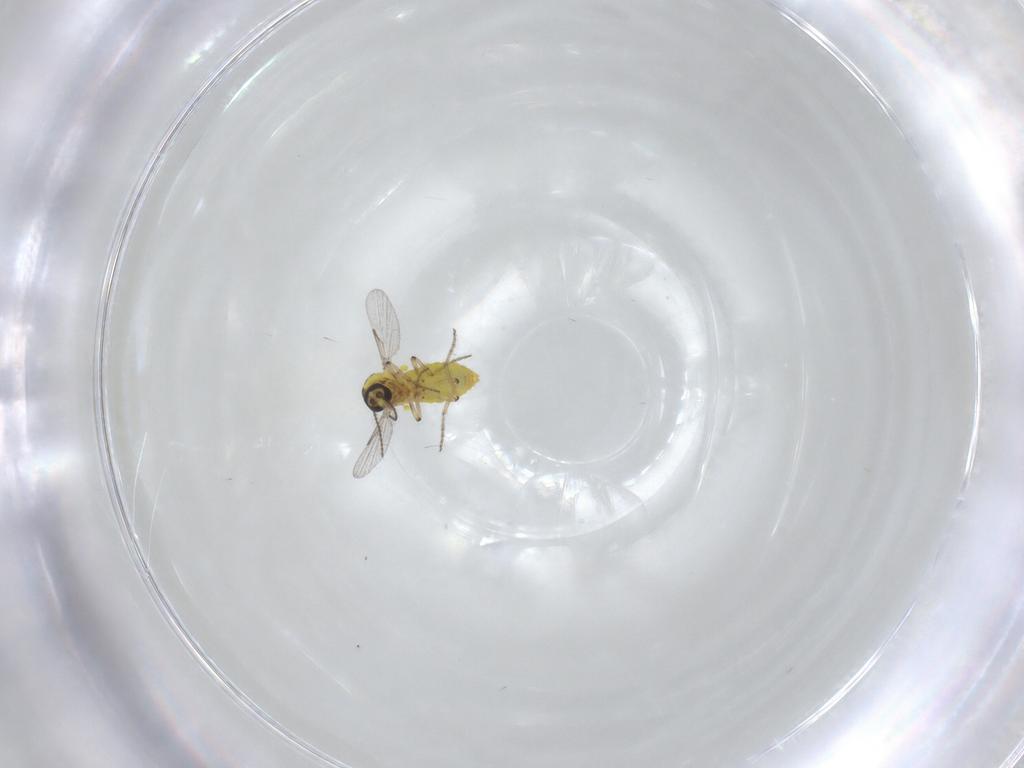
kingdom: Animalia
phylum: Arthropoda
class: Insecta
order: Diptera
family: Ceratopogonidae
